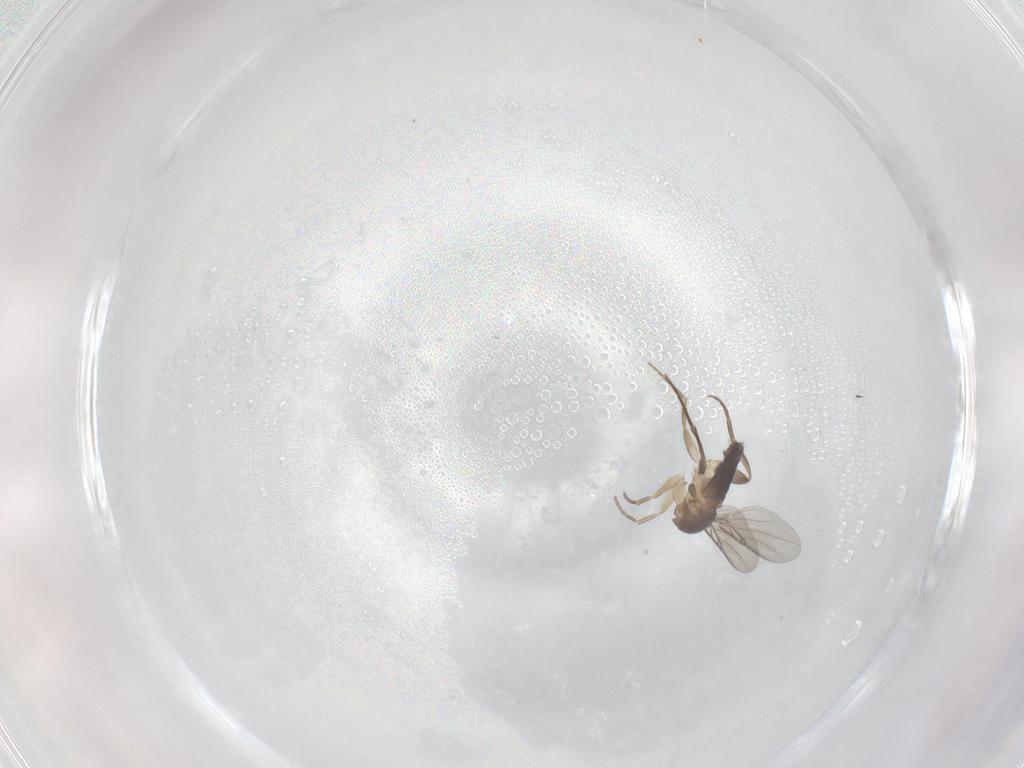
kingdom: Animalia
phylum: Arthropoda
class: Insecta
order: Diptera
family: Phoridae
